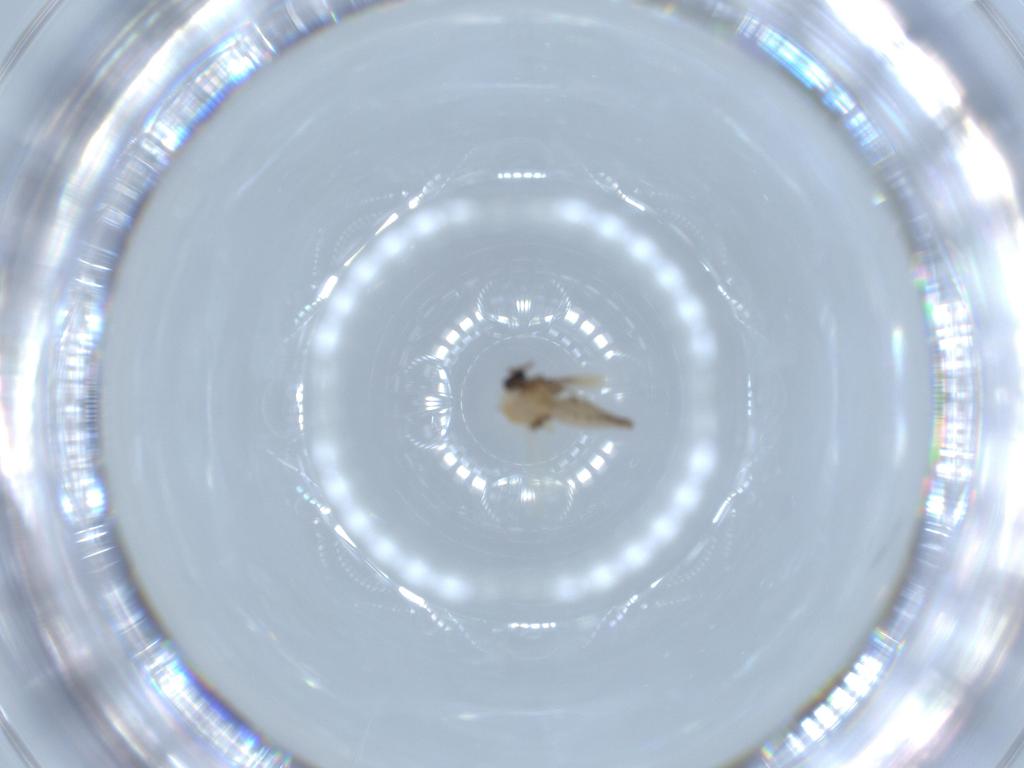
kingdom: Animalia
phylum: Arthropoda
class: Insecta
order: Diptera
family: Ceratopogonidae
